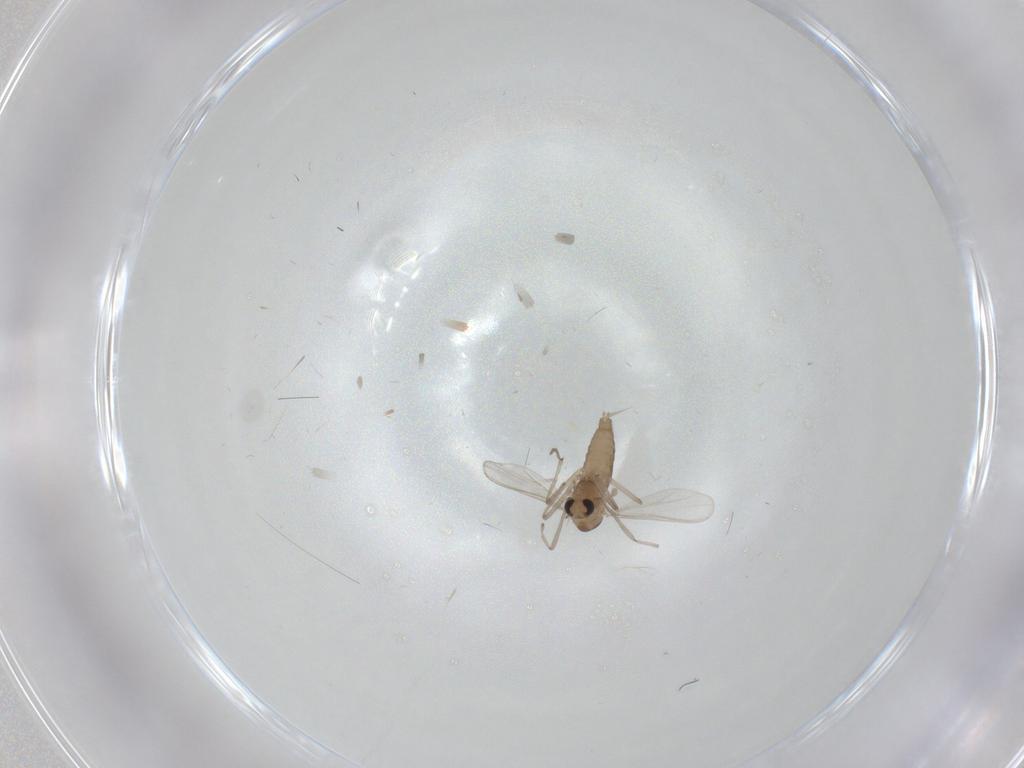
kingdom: Animalia
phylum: Arthropoda
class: Insecta
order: Diptera
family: Chironomidae
